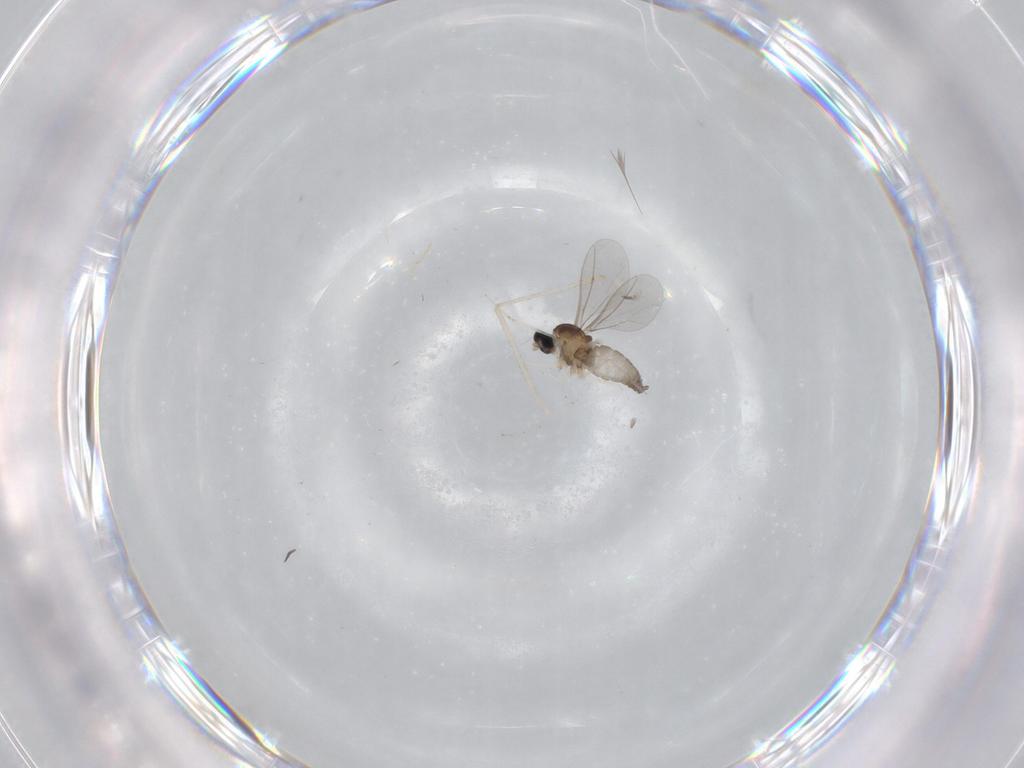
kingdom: Animalia
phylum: Arthropoda
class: Insecta
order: Diptera
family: Cecidomyiidae
